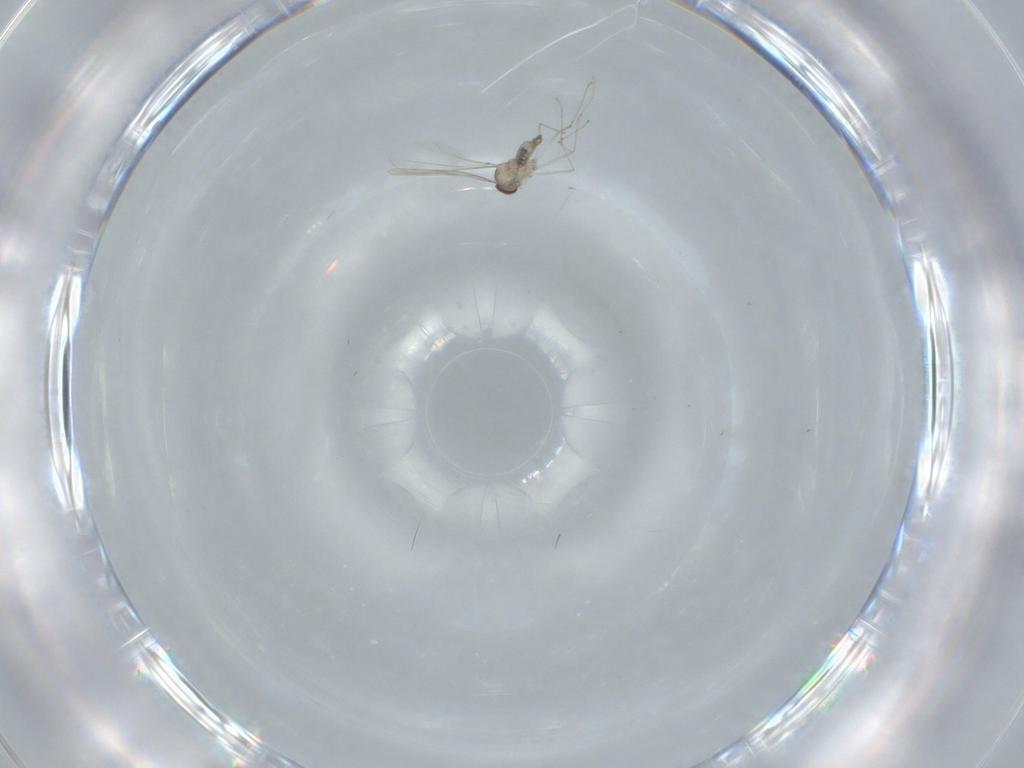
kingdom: Animalia
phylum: Arthropoda
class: Insecta
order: Diptera
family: Cecidomyiidae
